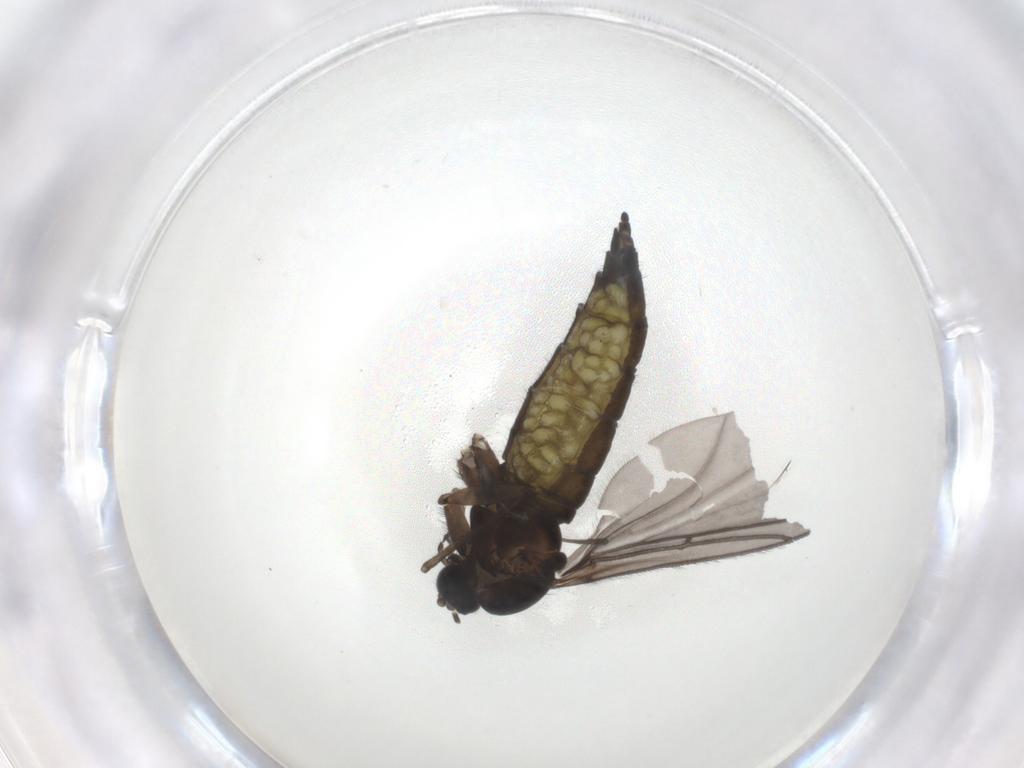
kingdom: Animalia
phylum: Arthropoda
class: Insecta
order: Diptera
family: Sciaridae
